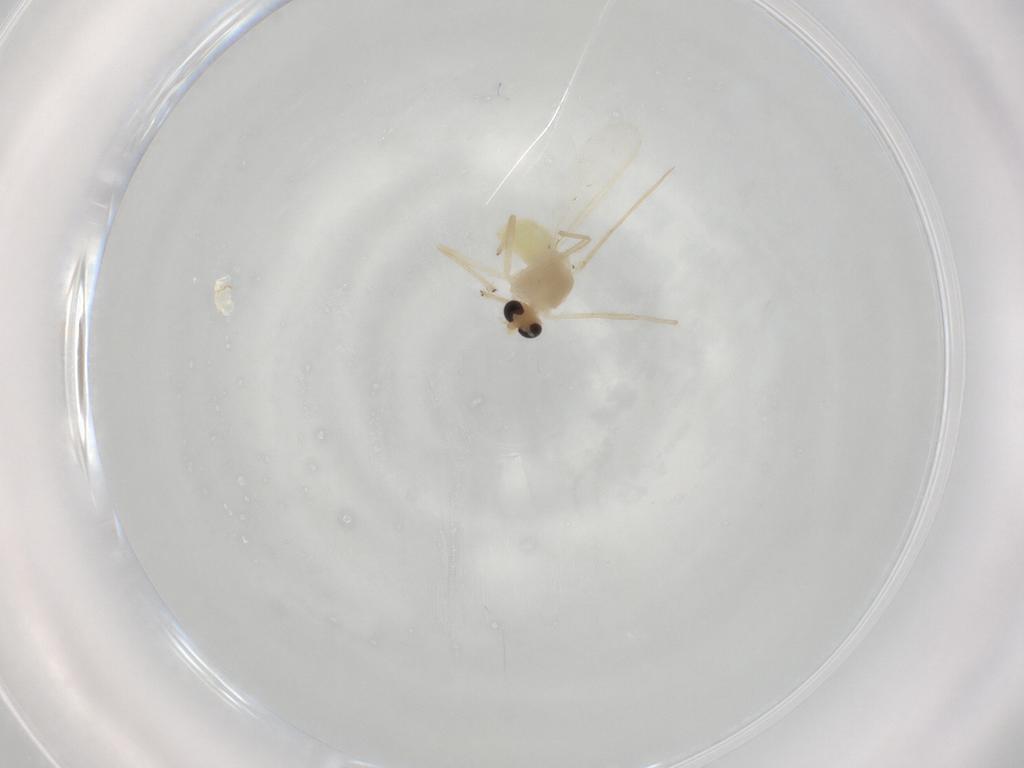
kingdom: Animalia
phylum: Arthropoda
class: Insecta
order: Diptera
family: Chironomidae
